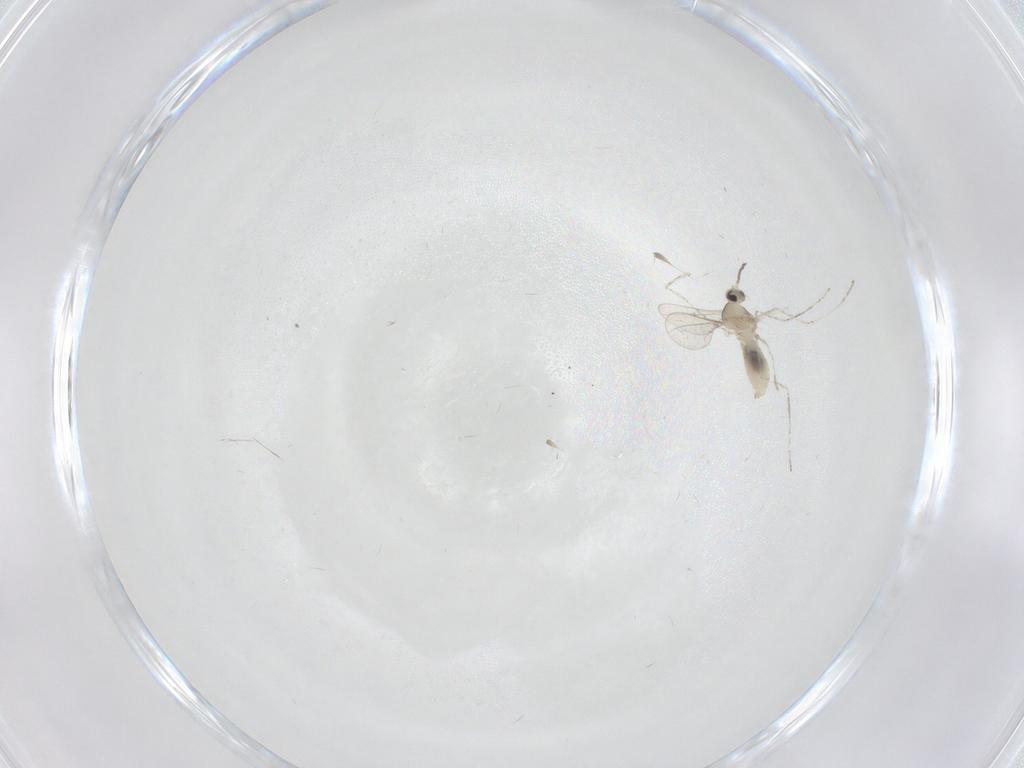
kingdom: Animalia
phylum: Arthropoda
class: Insecta
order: Diptera
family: Cecidomyiidae
